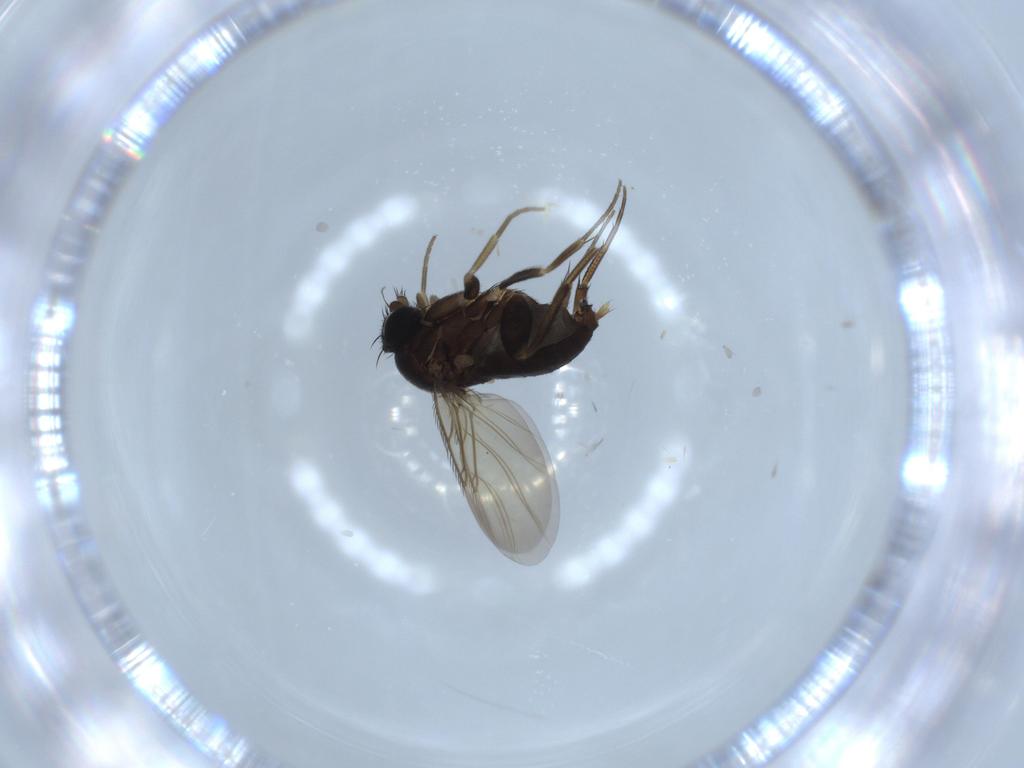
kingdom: Animalia
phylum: Arthropoda
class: Insecta
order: Diptera
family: Drosophilidae
